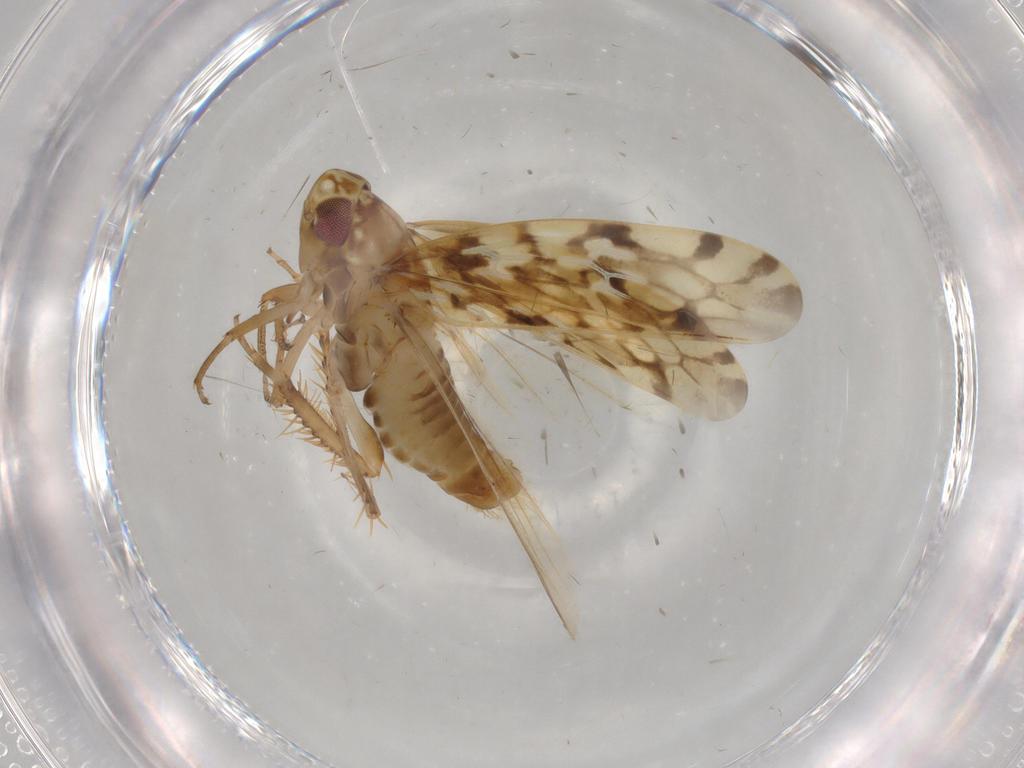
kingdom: Animalia
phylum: Arthropoda
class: Insecta
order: Hemiptera
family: Cicadellidae
